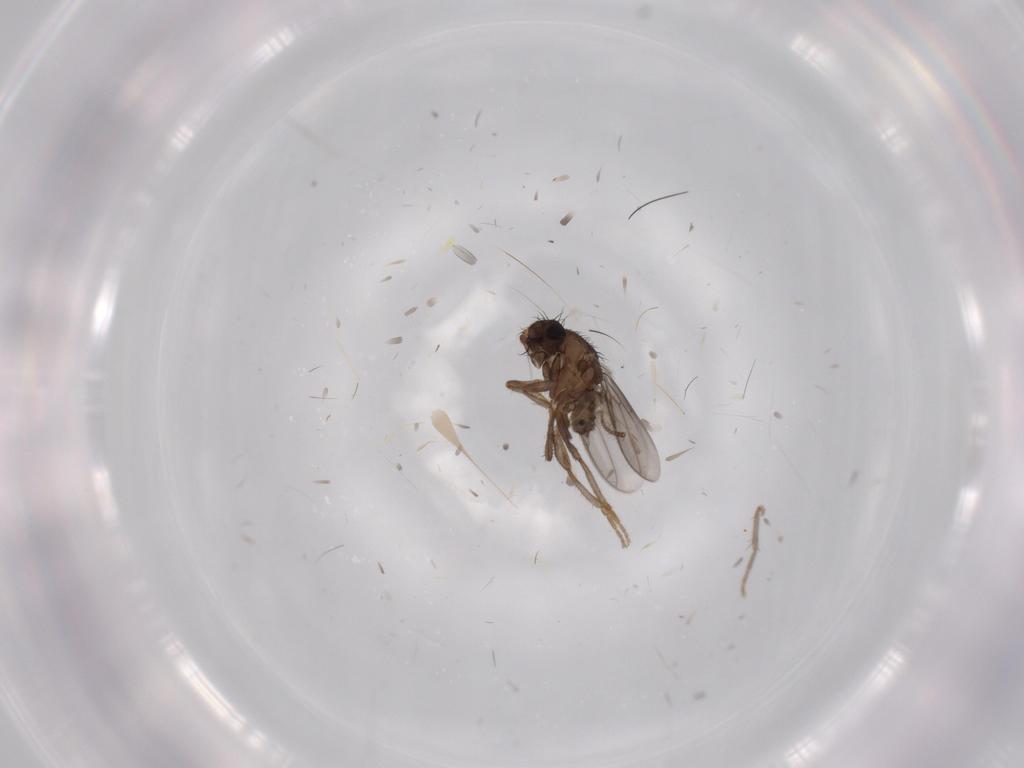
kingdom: Animalia
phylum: Arthropoda
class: Insecta
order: Diptera
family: Sphaeroceridae
